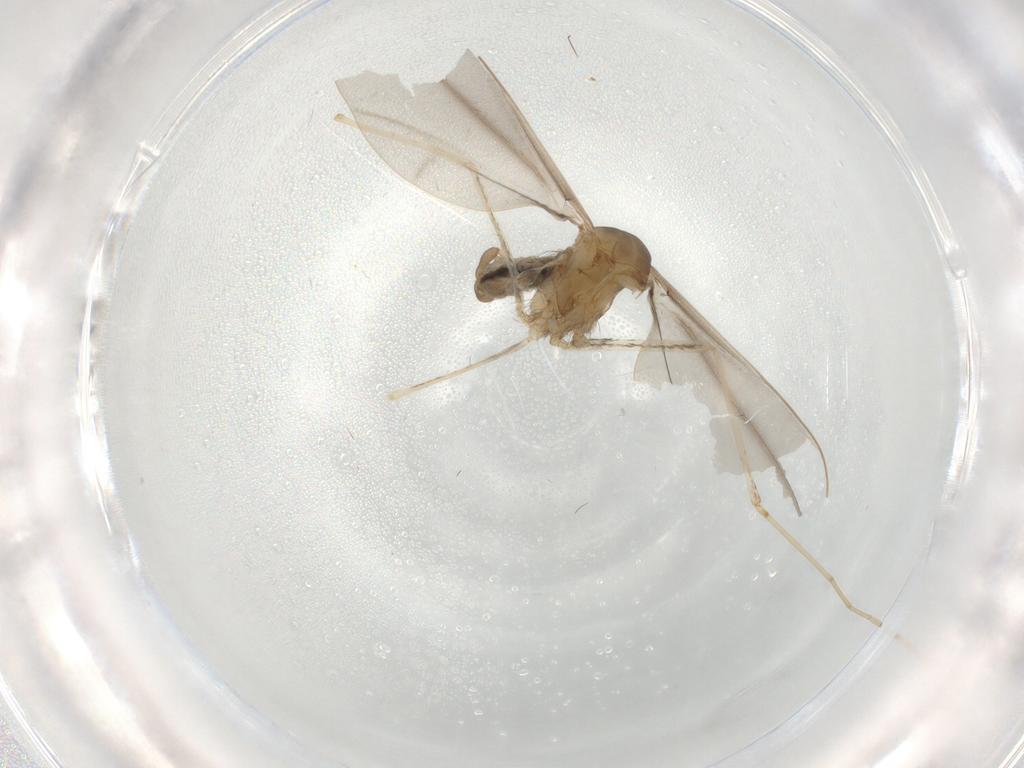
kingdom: Animalia
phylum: Arthropoda
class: Insecta
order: Diptera
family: Cecidomyiidae
